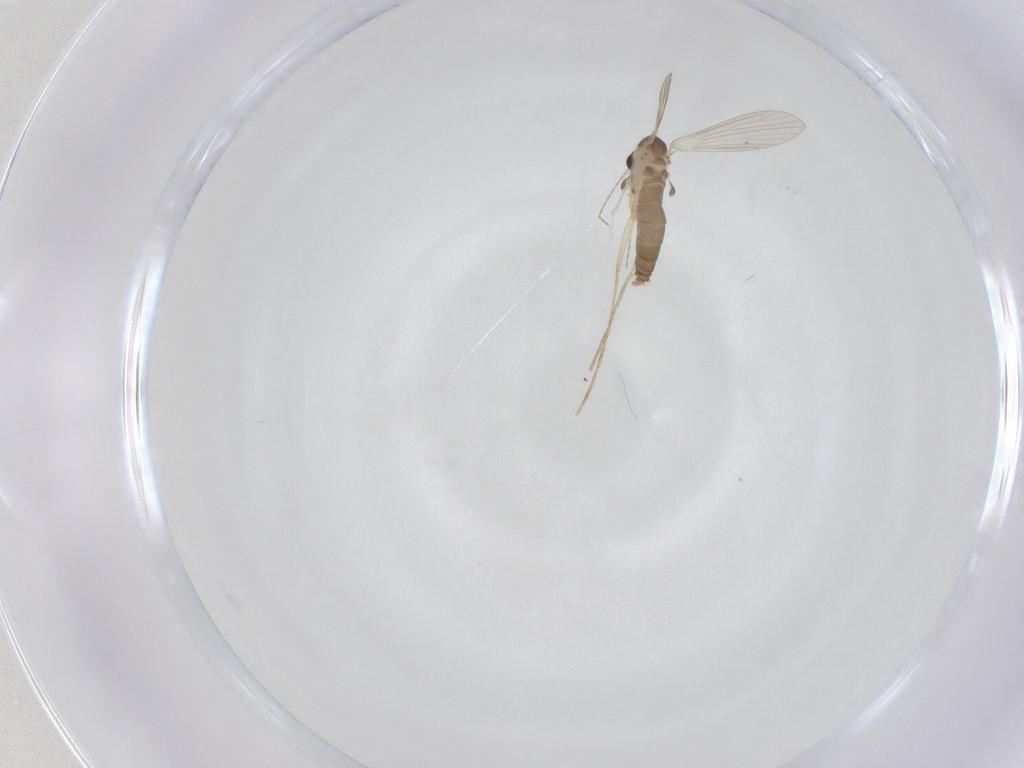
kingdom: Animalia
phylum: Arthropoda
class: Insecta
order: Diptera
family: Psychodidae
